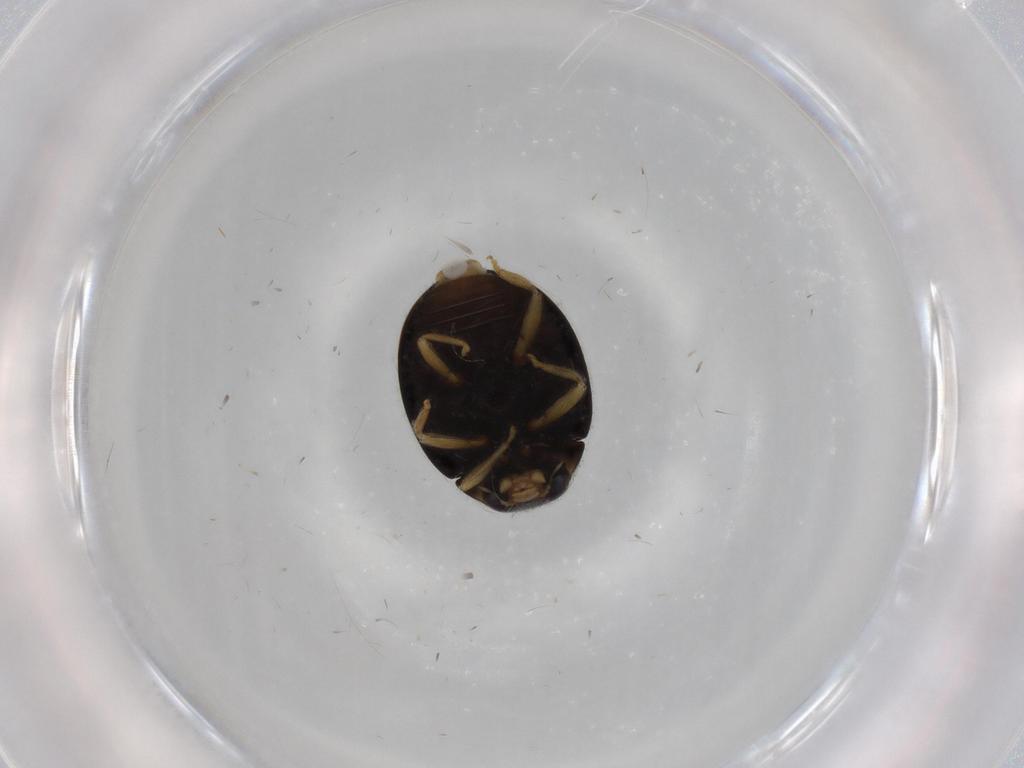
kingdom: Animalia
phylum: Arthropoda
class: Insecta
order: Coleoptera
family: Coccinellidae
